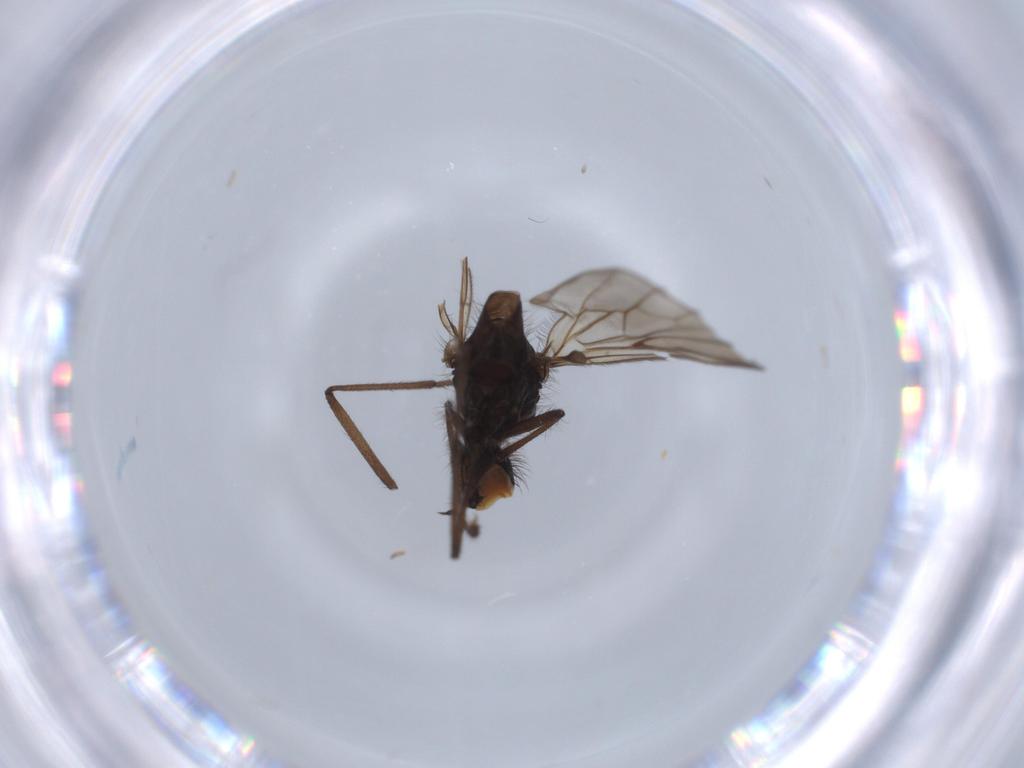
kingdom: Animalia
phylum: Arthropoda
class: Insecta
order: Diptera
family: Empididae
